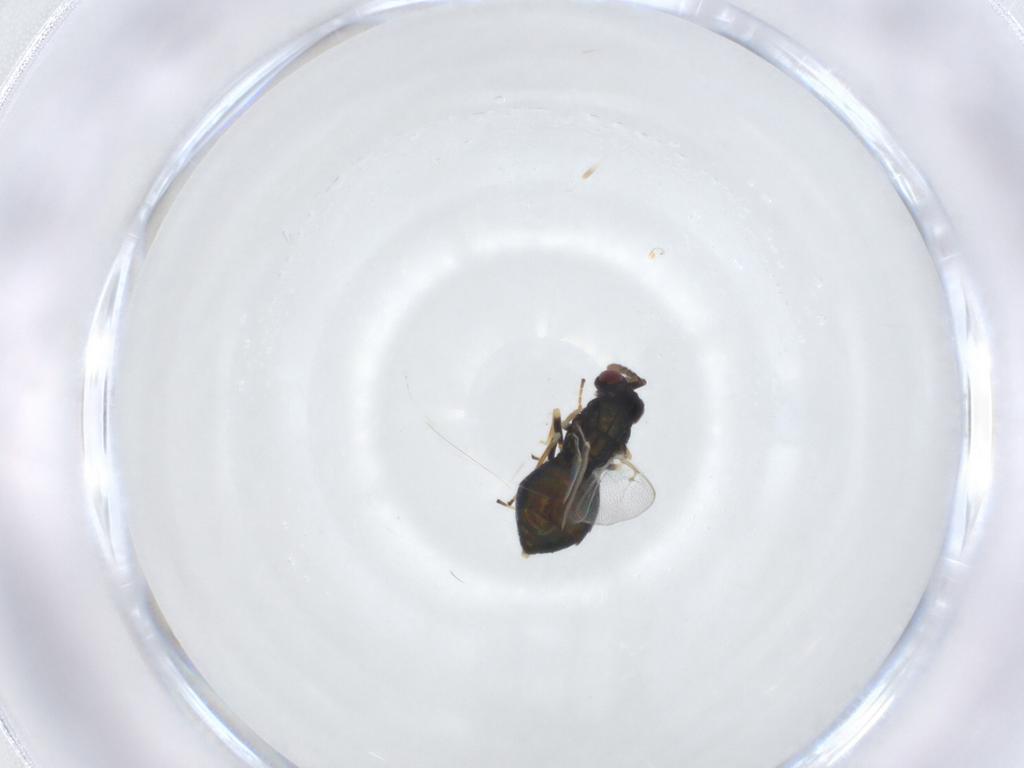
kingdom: Animalia
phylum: Arthropoda
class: Insecta
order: Hymenoptera
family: Eulophidae
